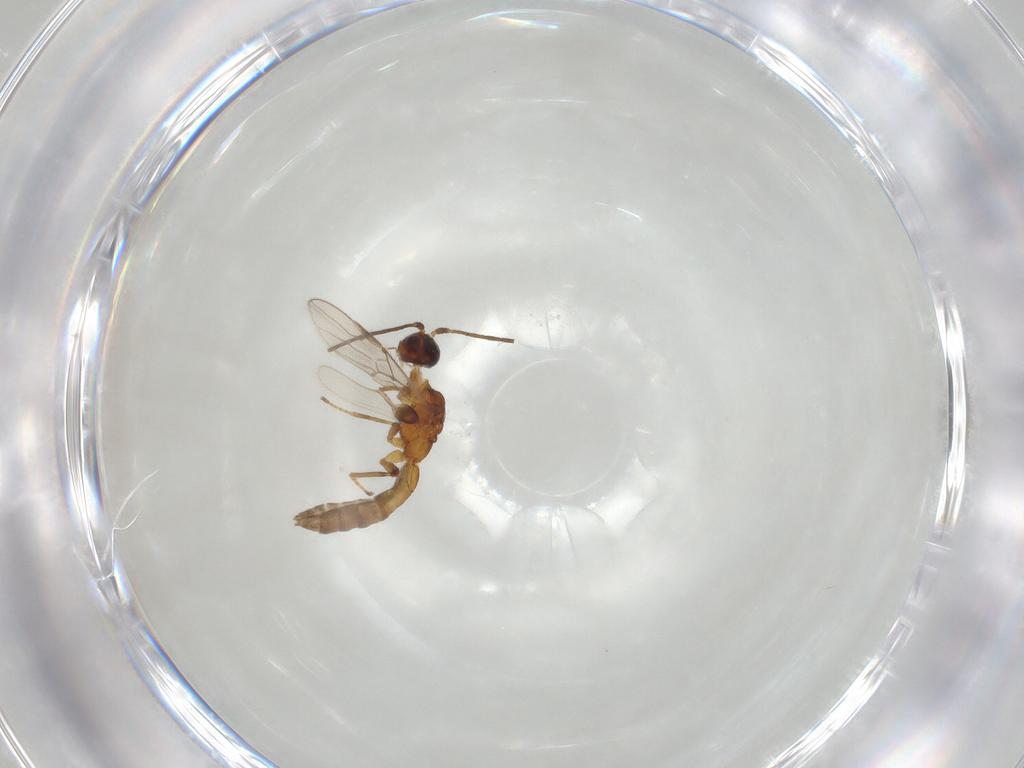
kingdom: Animalia
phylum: Arthropoda
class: Insecta
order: Hymenoptera
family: Braconidae
